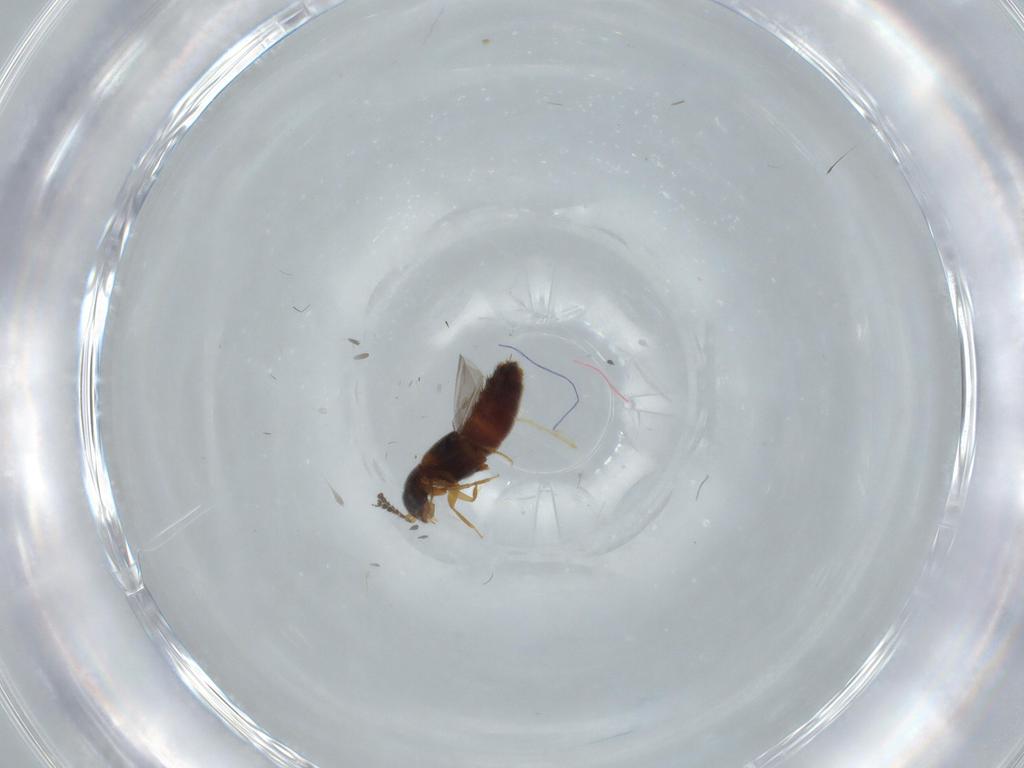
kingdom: Animalia
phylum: Arthropoda
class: Insecta
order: Coleoptera
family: Staphylinidae
